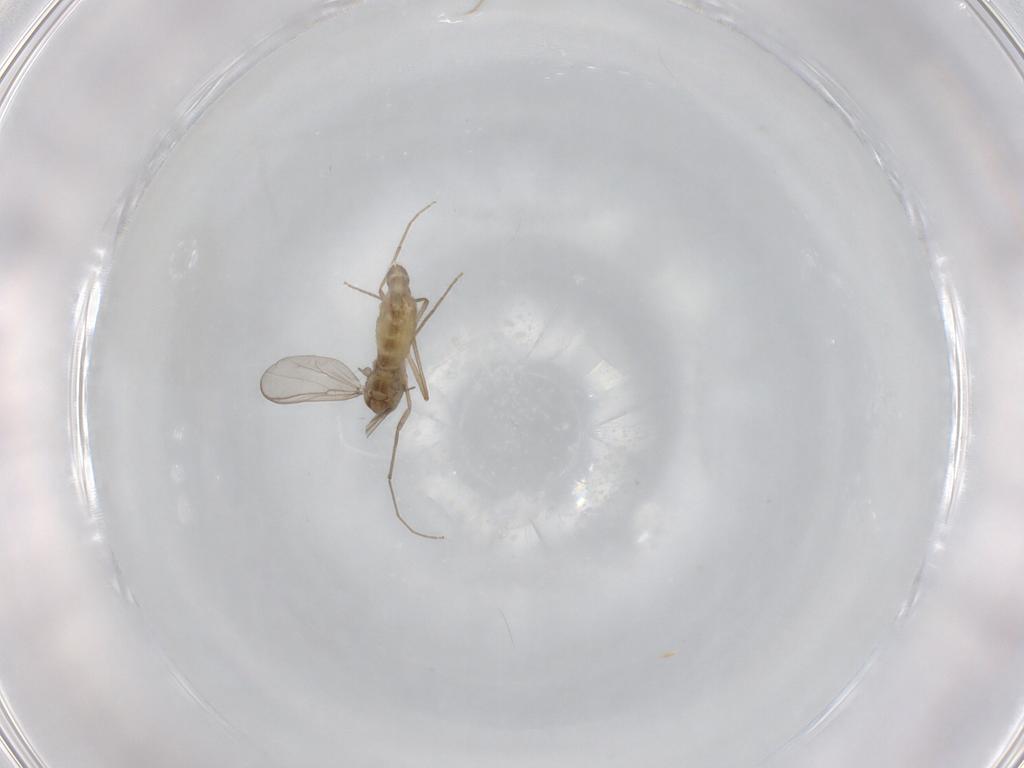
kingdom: Animalia
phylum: Arthropoda
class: Insecta
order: Diptera
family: Chironomidae
